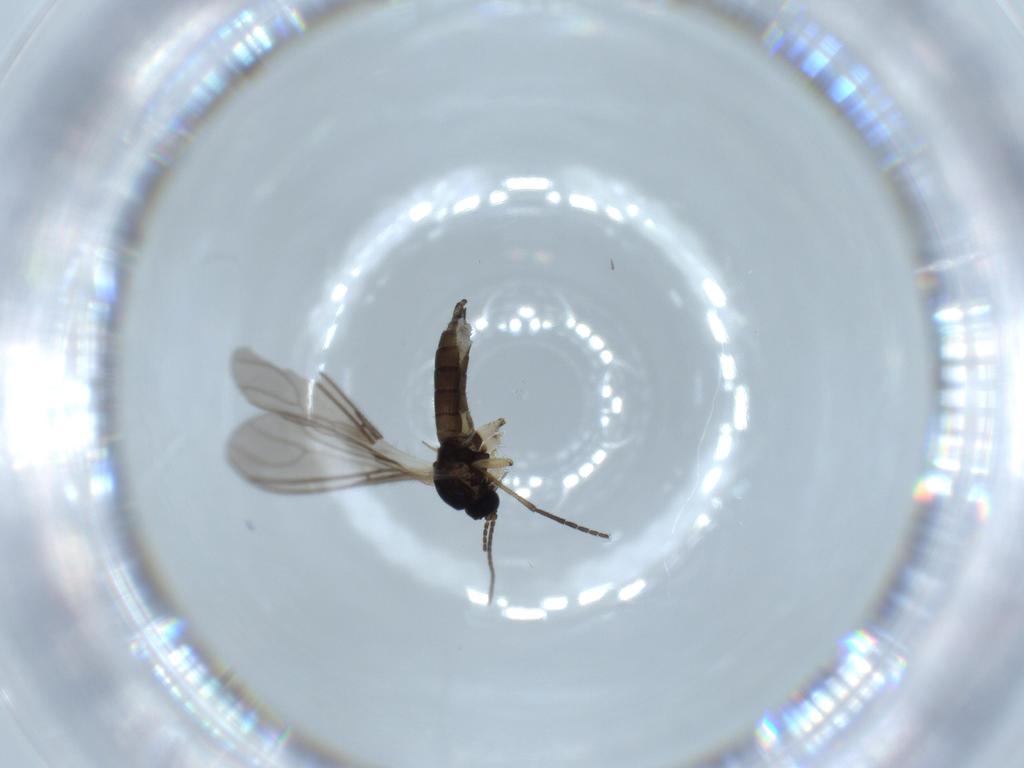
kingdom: Animalia
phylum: Arthropoda
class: Insecta
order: Diptera
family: Sciaridae
